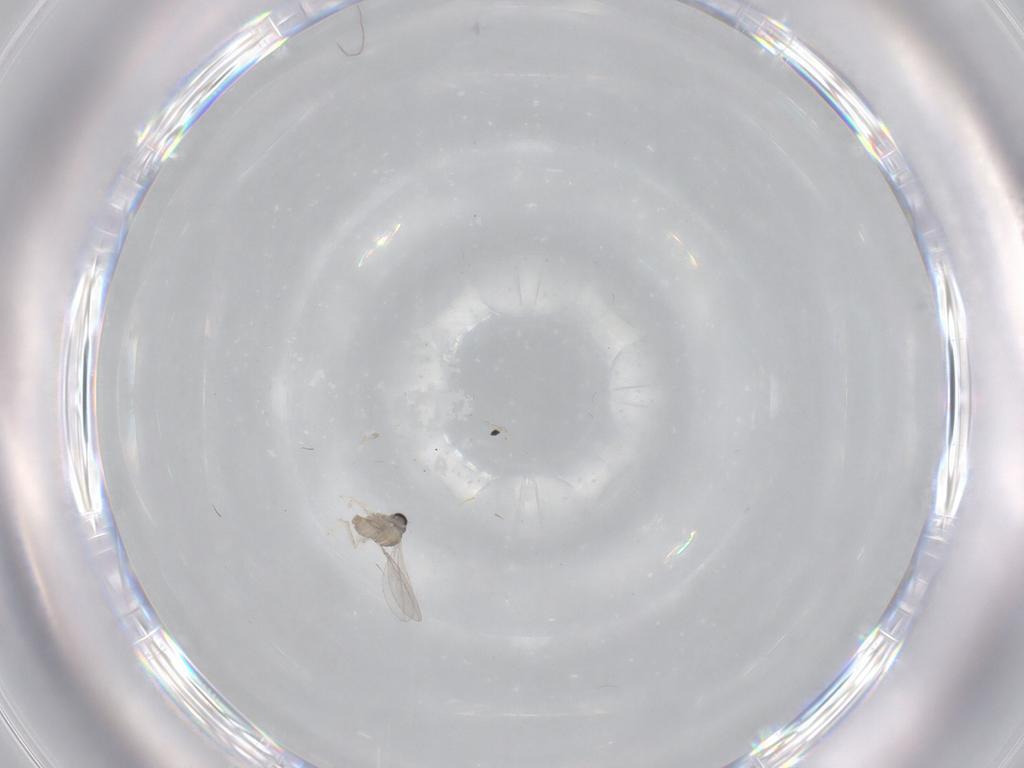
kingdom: Animalia
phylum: Arthropoda
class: Insecta
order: Diptera
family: Cecidomyiidae
